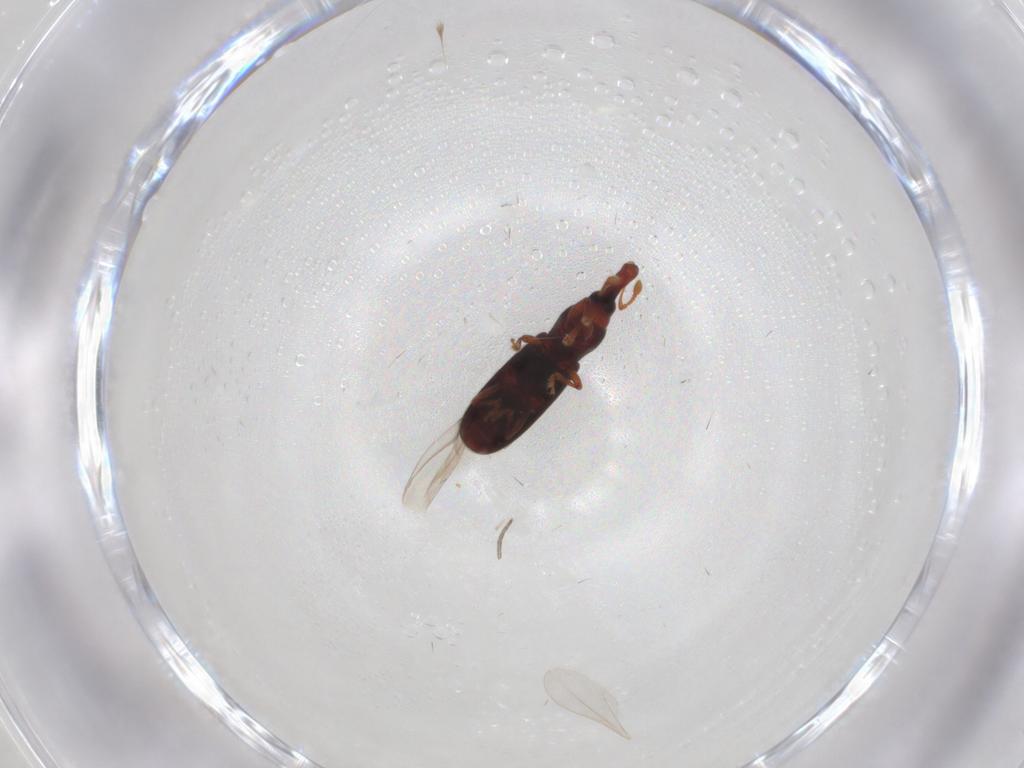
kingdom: Animalia
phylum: Arthropoda
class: Insecta
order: Coleoptera
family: Curculionidae
